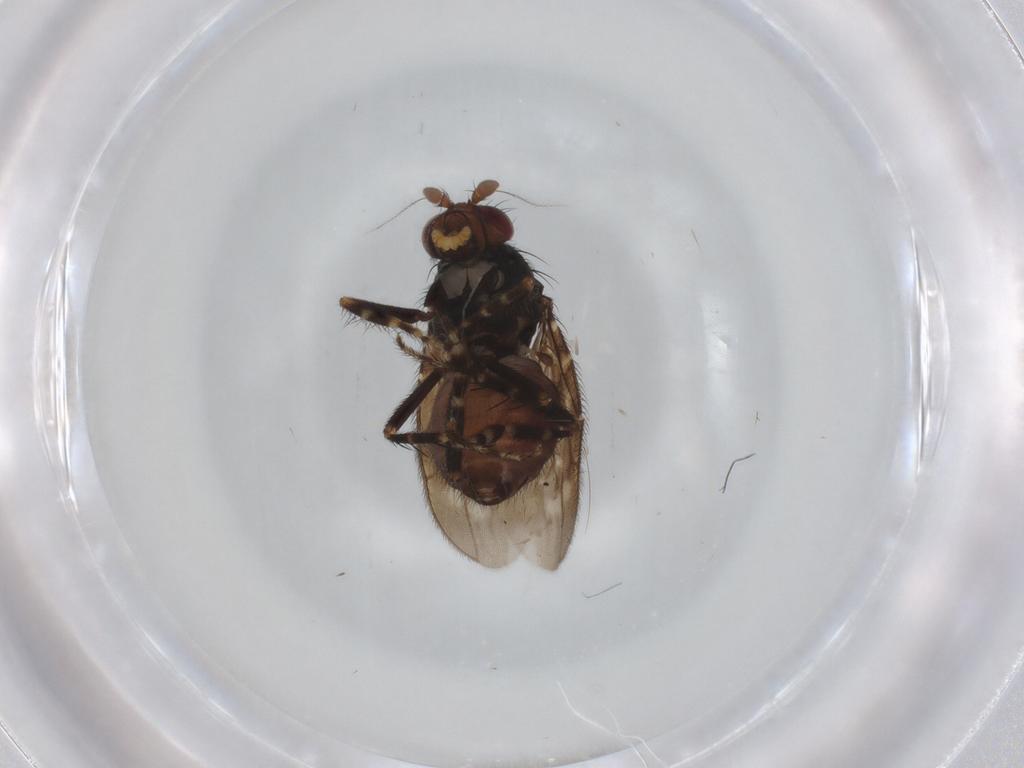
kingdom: Animalia
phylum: Arthropoda
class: Insecta
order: Diptera
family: Sphaeroceridae
